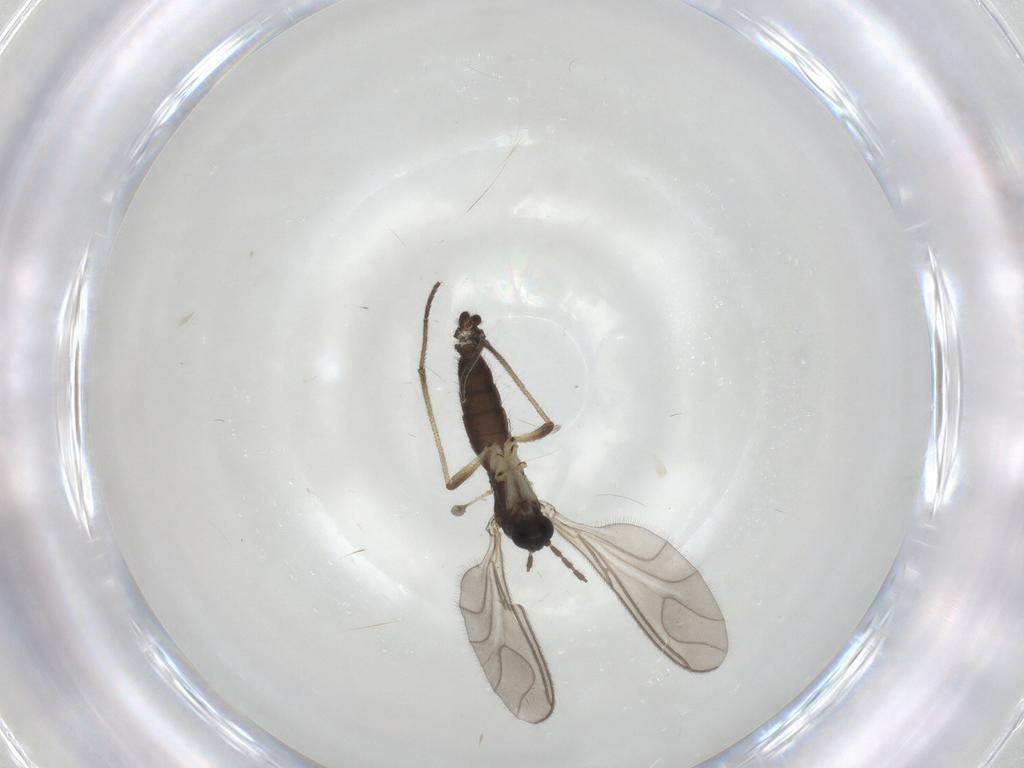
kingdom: Animalia
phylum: Arthropoda
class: Insecta
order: Diptera
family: Sciaridae
